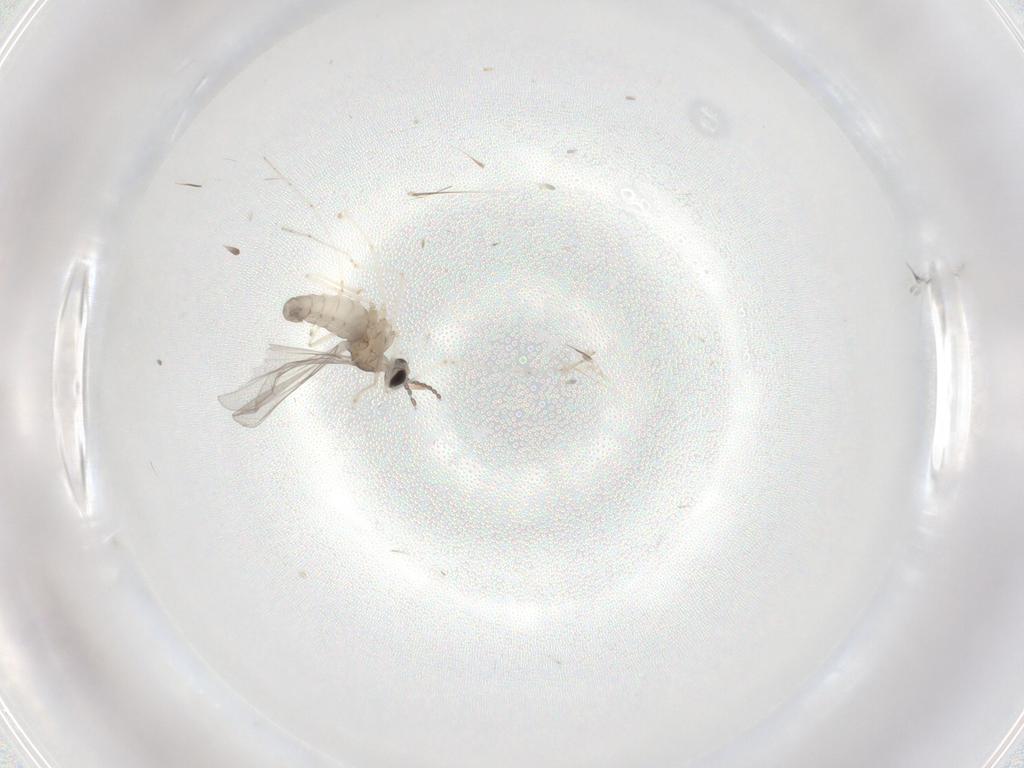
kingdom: Animalia
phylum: Arthropoda
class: Insecta
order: Diptera
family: Cecidomyiidae
